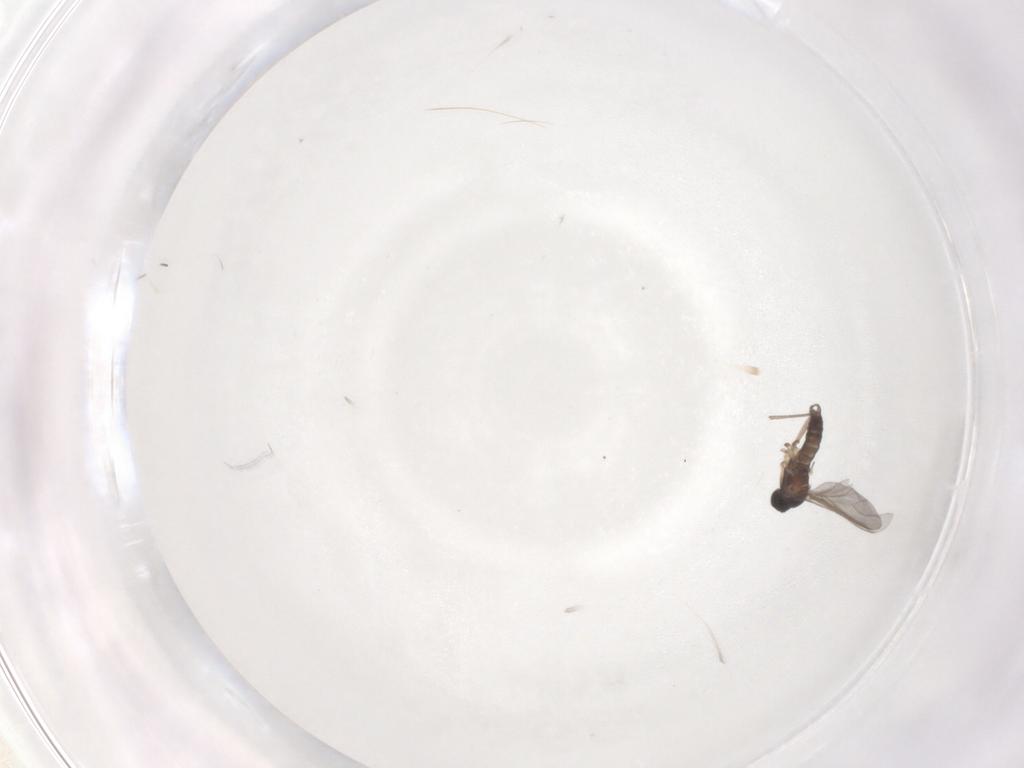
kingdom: Animalia
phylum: Arthropoda
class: Insecta
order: Diptera
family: Sciaridae
